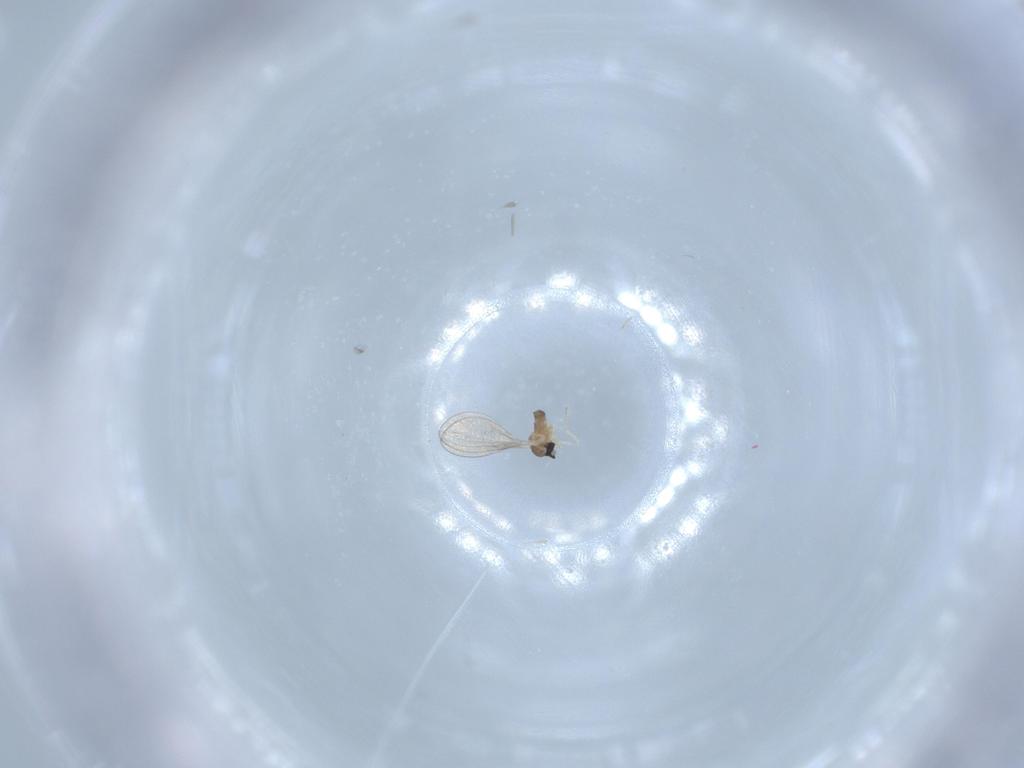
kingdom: Animalia
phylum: Arthropoda
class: Insecta
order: Diptera
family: Cecidomyiidae
